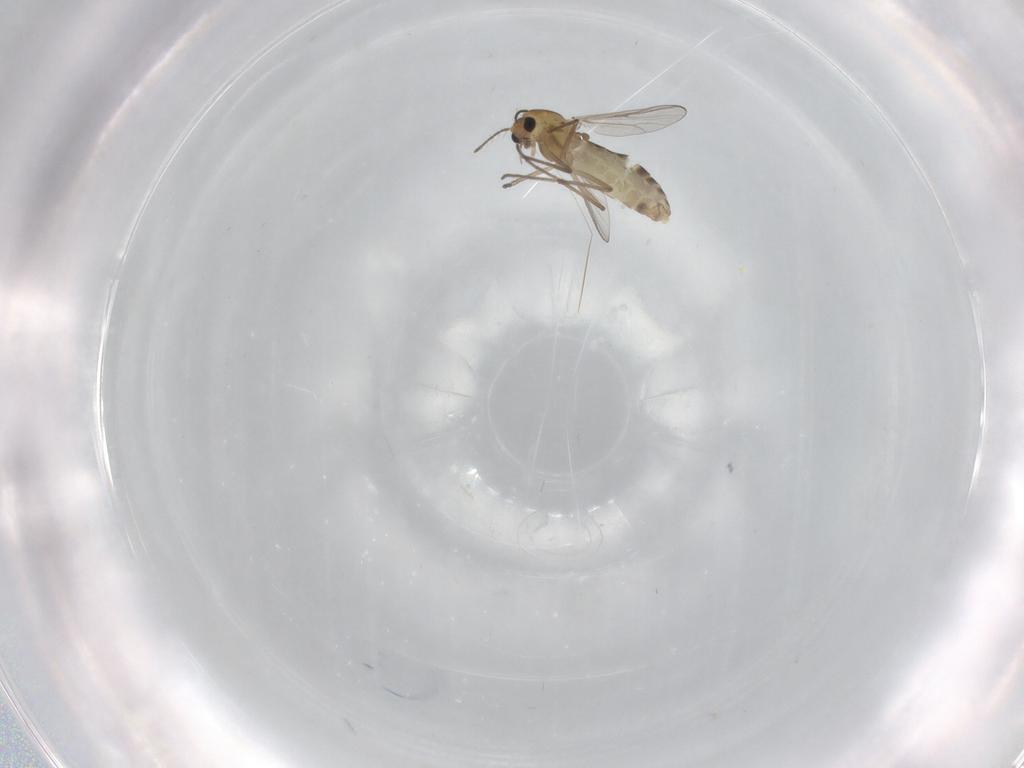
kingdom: Animalia
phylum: Arthropoda
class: Insecta
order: Diptera
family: Chironomidae
